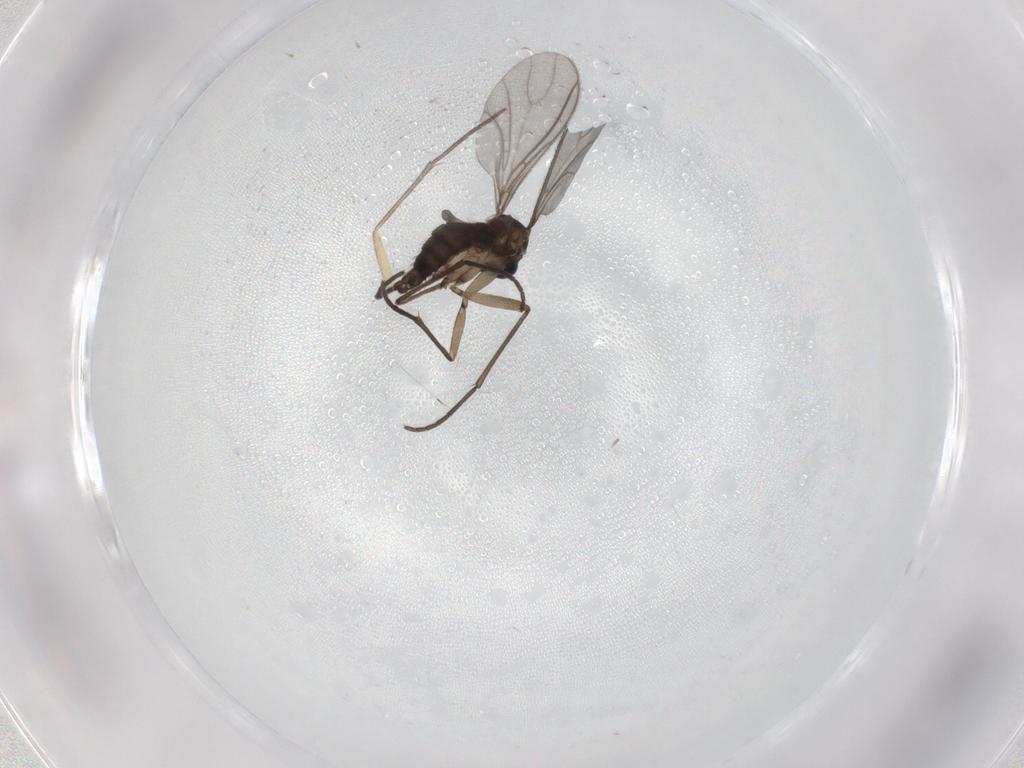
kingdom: Animalia
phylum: Arthropoda
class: Insecta
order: Diptera
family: Sciaridae
